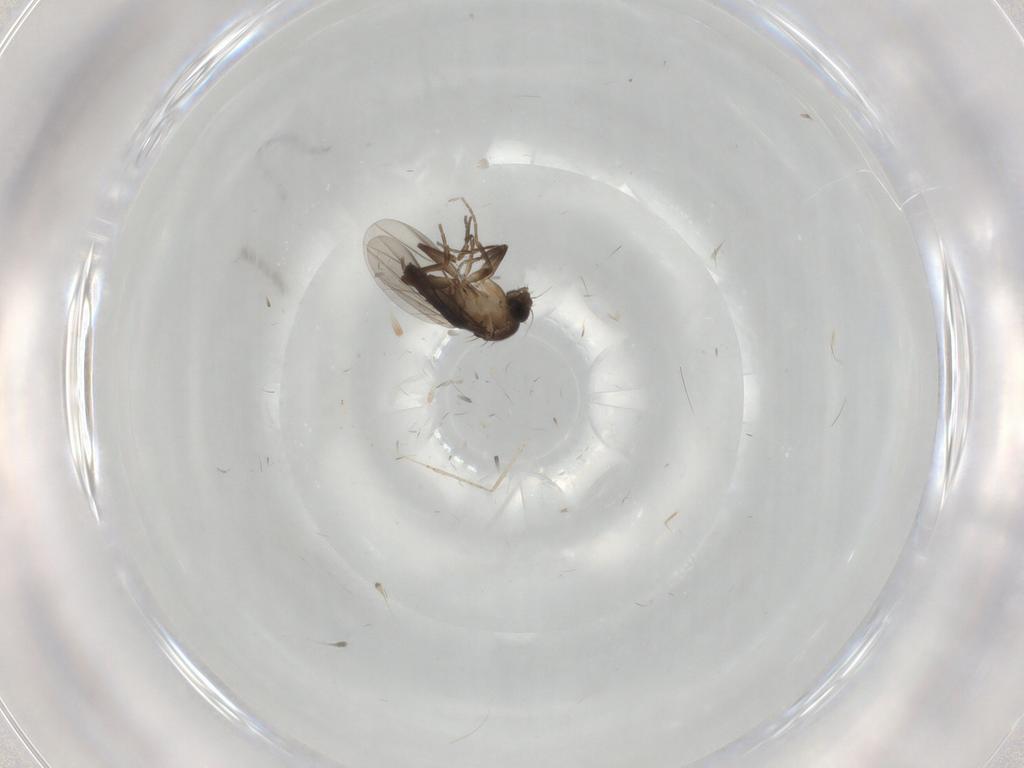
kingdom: Animalia
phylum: Arthropoda
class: Insecta
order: Diptera
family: Phoridae
